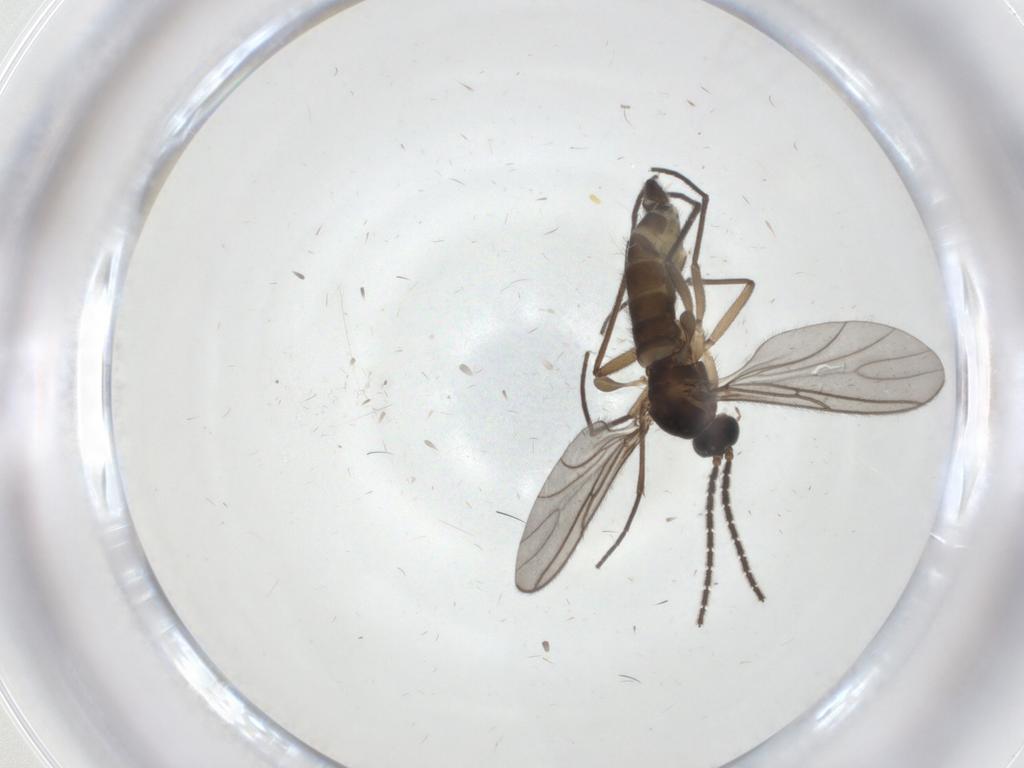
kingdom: Animalia
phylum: Arthropoda
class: Insecta
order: Diptera
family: Sciaridae
